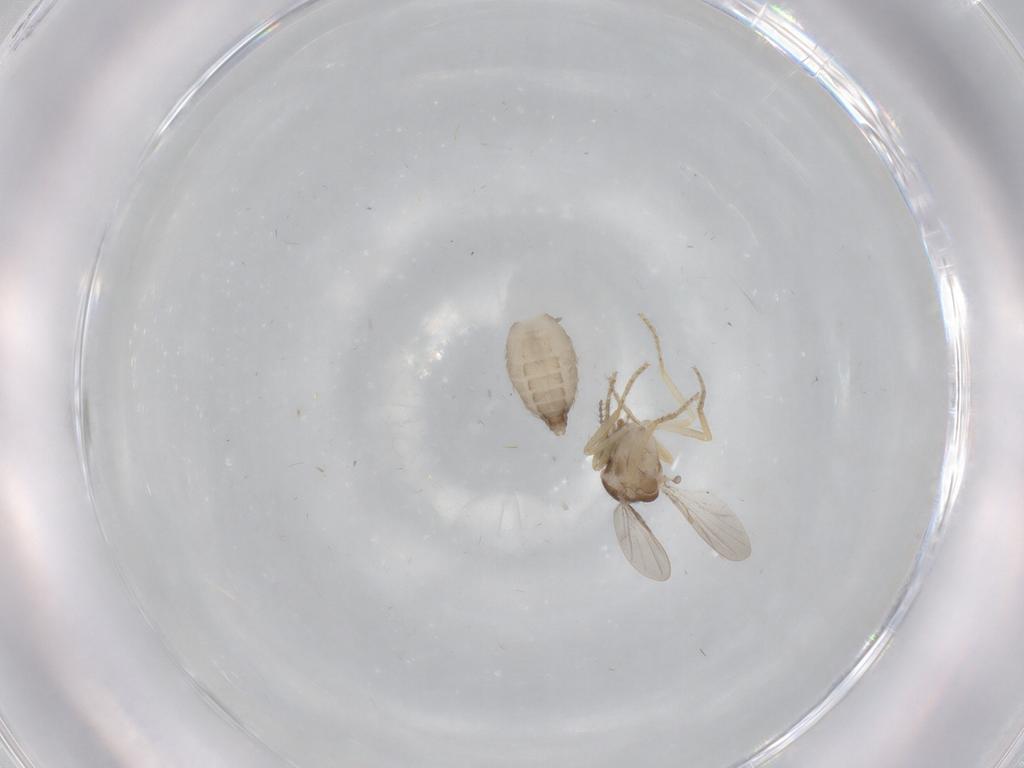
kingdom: Animalia
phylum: Arthropoda
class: Insecta
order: Diptera
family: Ceratopogonidae
